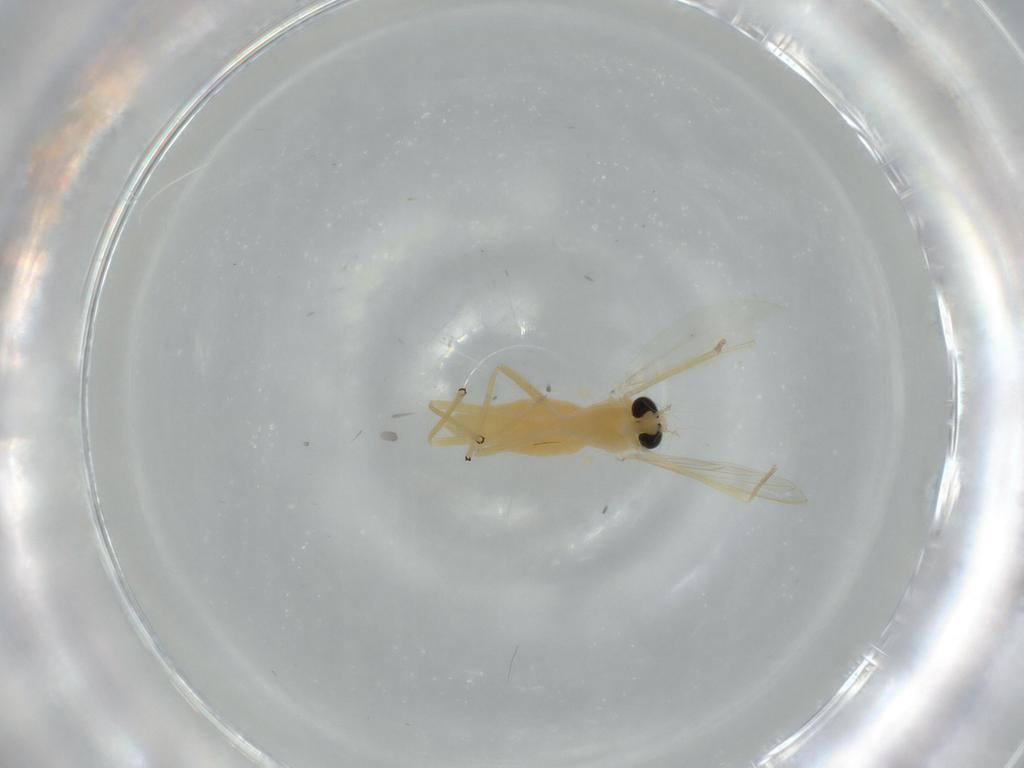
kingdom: Animalia
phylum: Arthropoda
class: Insecta
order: Diptera
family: Chironomidae
